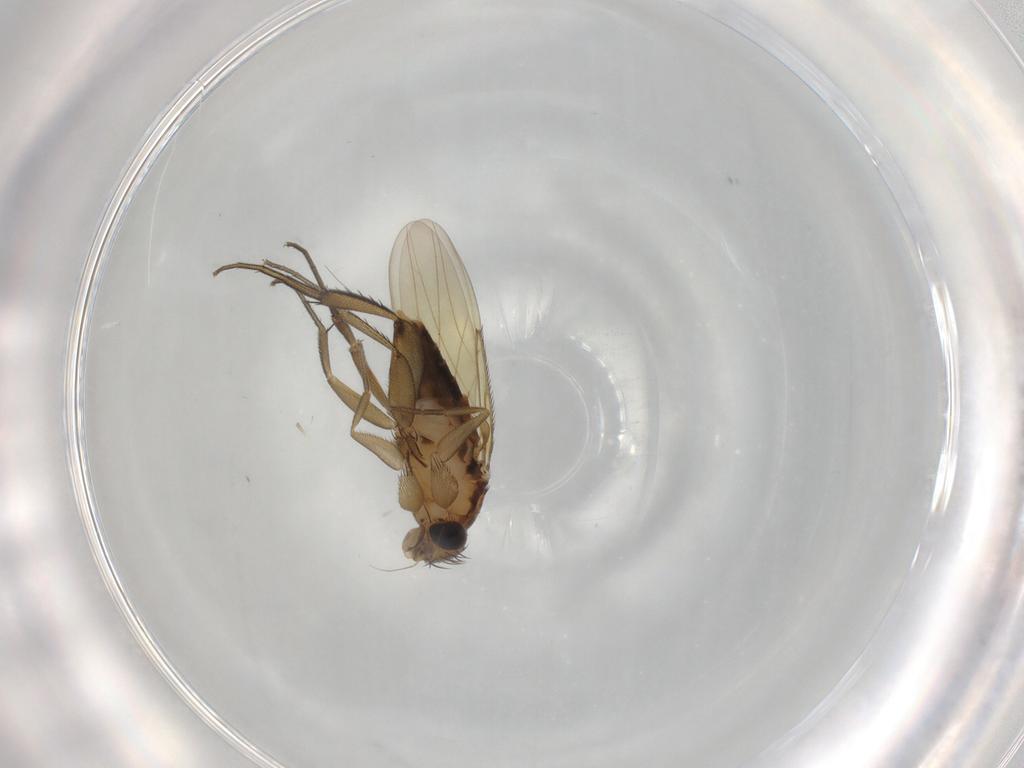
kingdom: Animalia
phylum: Arthropoda
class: Insecta
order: Diptera
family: Phoridae
